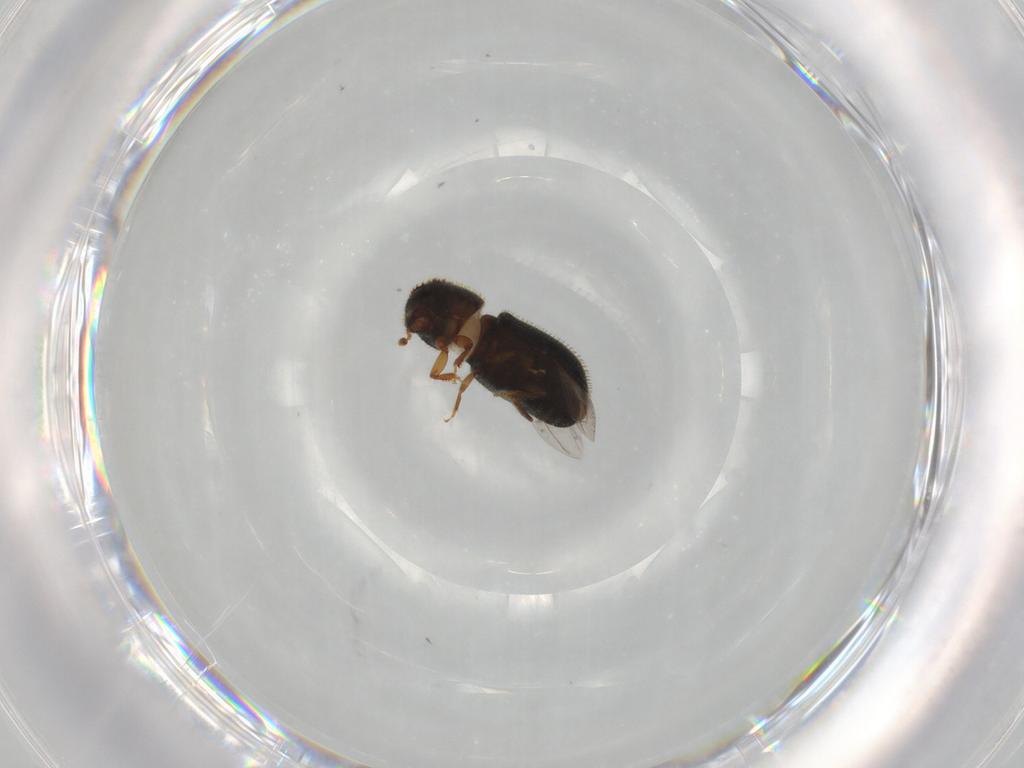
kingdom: Animalia
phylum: Arthropoda
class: Insecta
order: Coleoptera
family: Curculionidae
